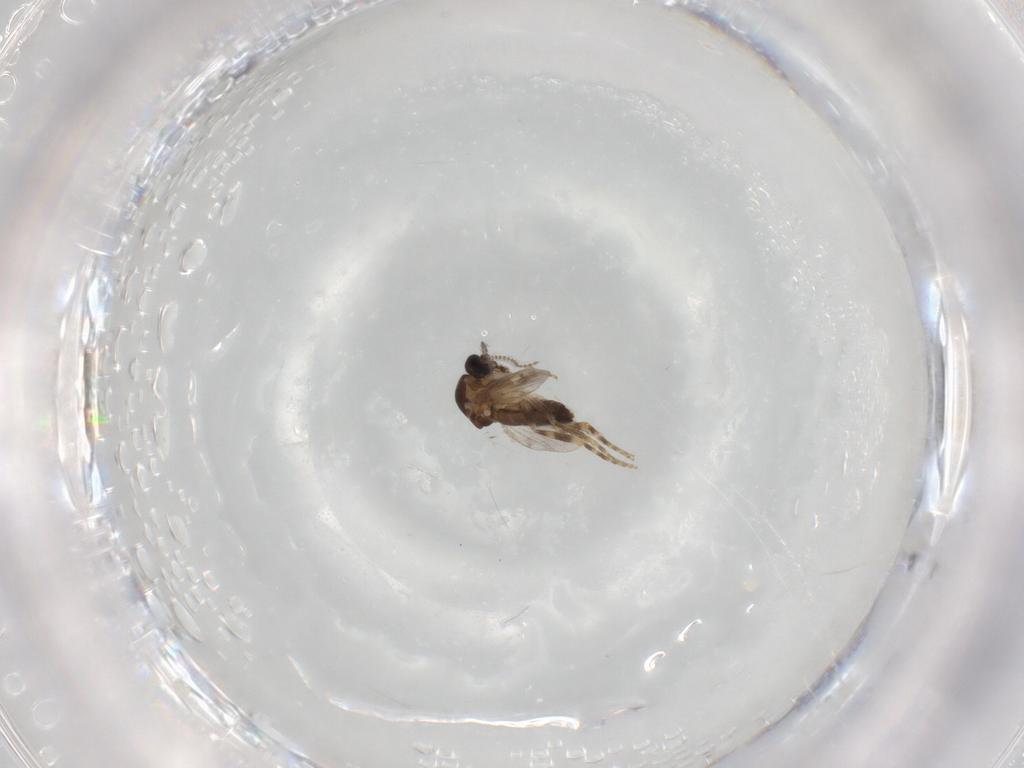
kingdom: Animalia
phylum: Arthropoda
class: Insecta
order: Diptera
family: Ceratopogonidae
